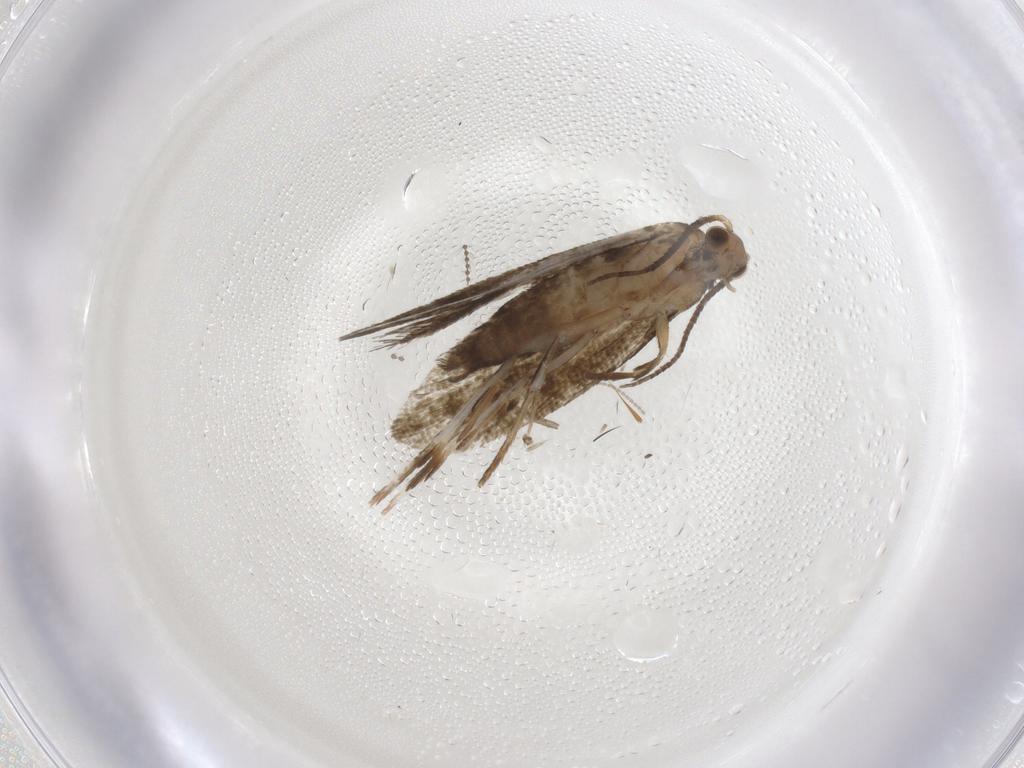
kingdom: Animalia
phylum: Arthropoda
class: Insecta
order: Lepidoptera
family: Tineidae
